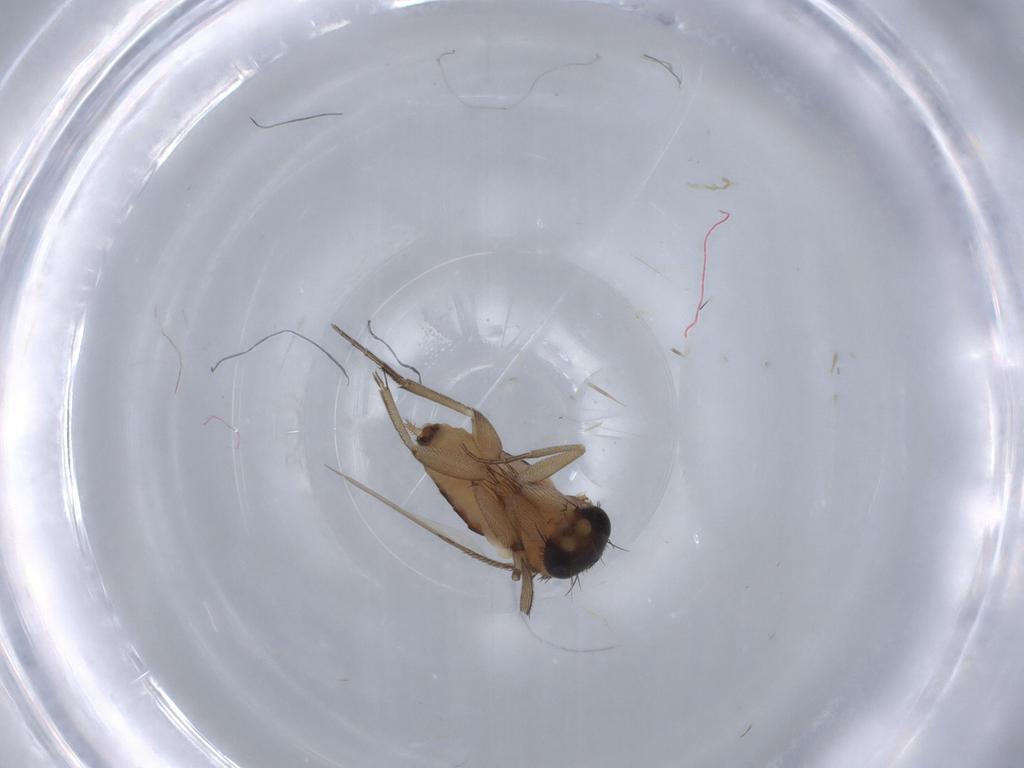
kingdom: Animalia
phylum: Arthropoda
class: Insecta
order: Diptera
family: Phoridae
